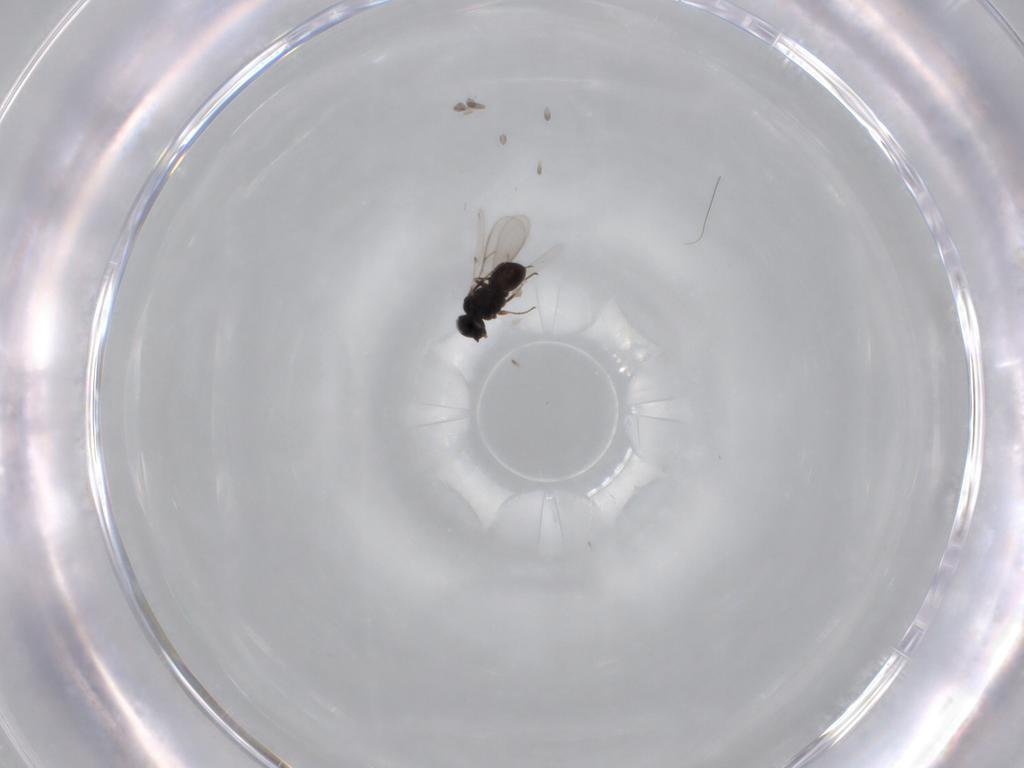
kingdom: Animalia
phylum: Arthropoda
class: Insecta
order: Hymenoptera
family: Scelionidae
